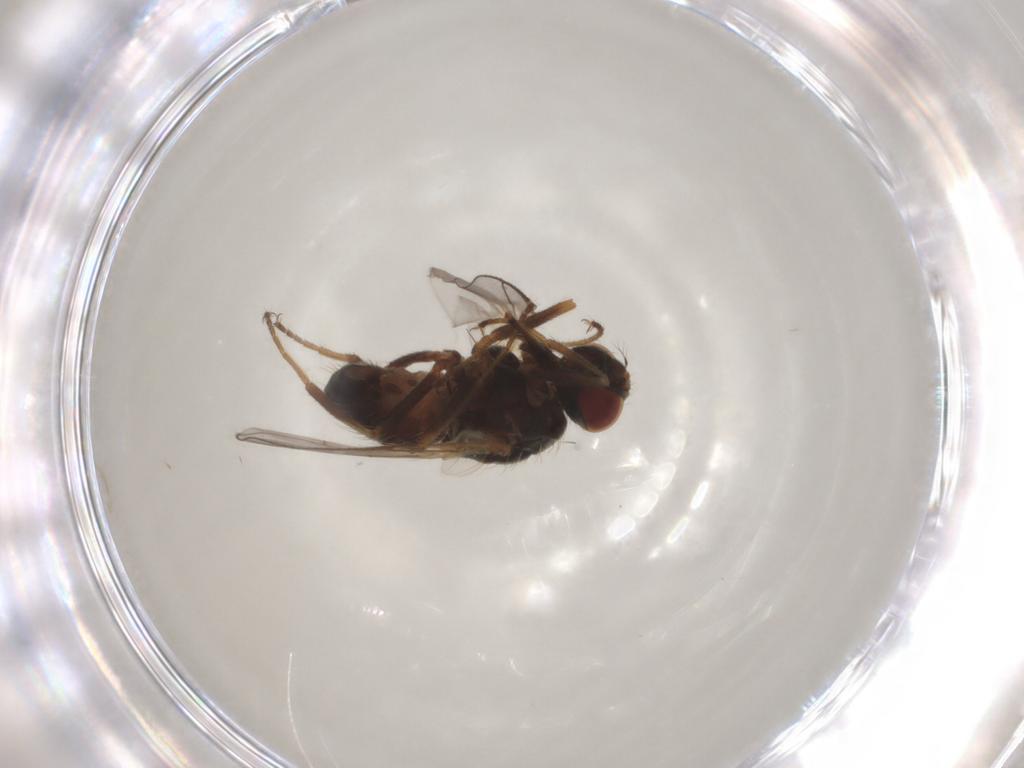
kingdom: Animalia
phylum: Arthropoda
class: Insecta
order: Diptera
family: Muscidae
